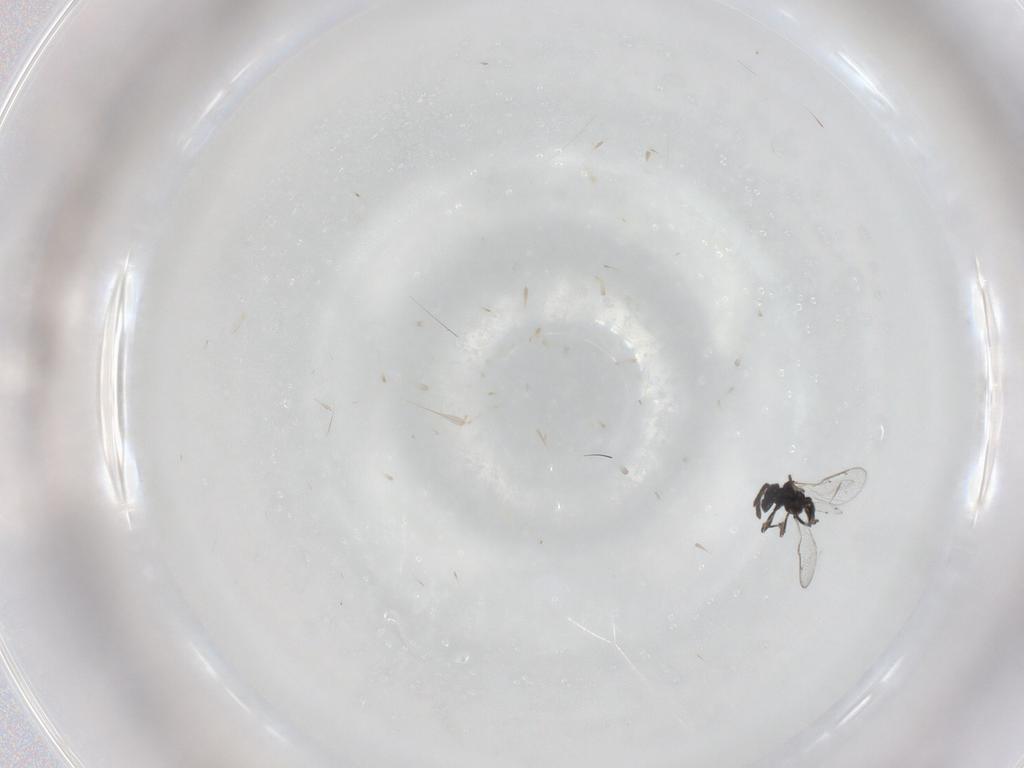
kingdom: Animalia
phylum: Arthropoda
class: Insecta
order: Hymenoptera
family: Eulophidae
